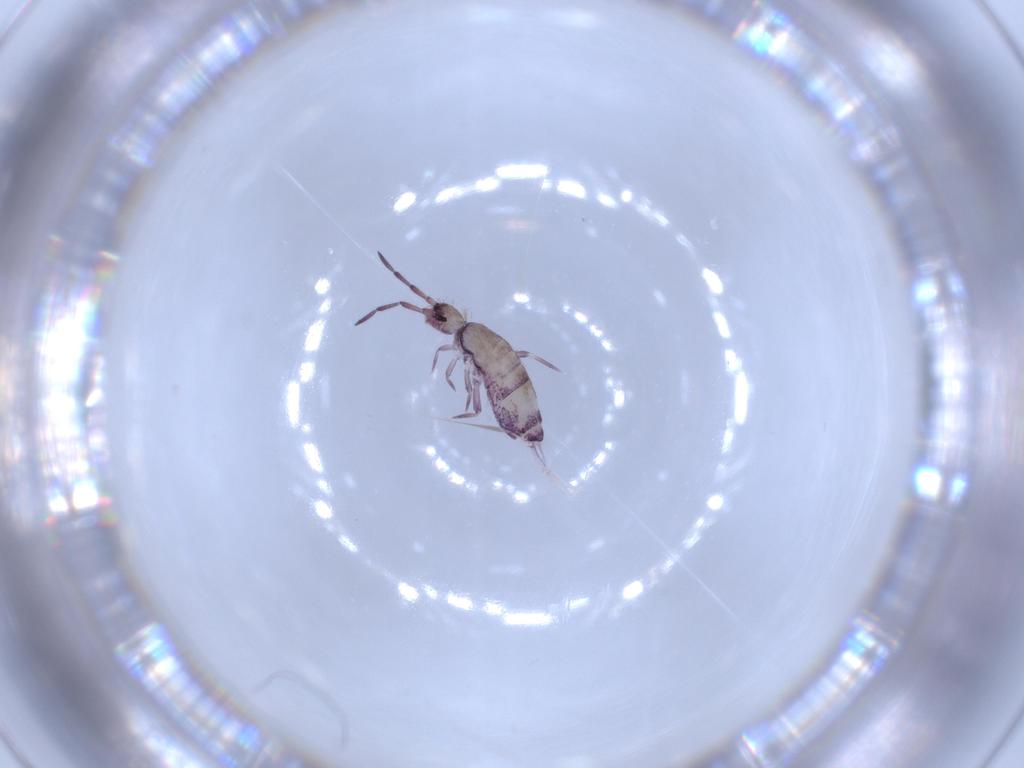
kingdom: Animalia
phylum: Arthropoda
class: Collembola
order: Entomobryomorpha
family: Entomobryidae
